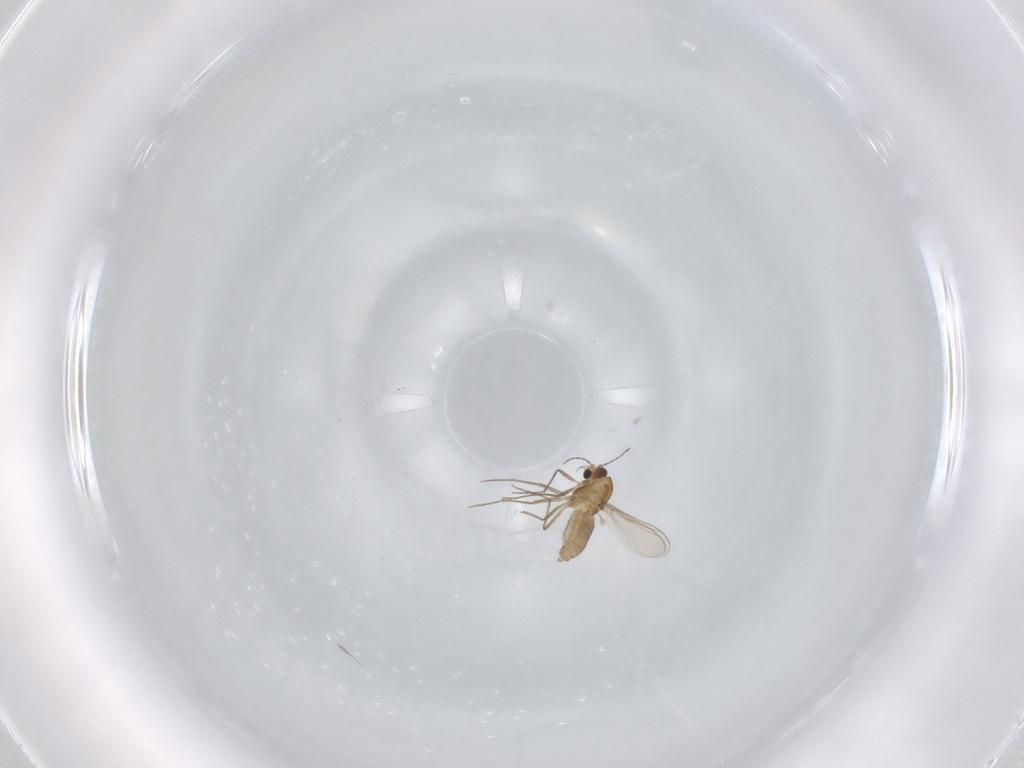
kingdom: Animalia
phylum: Arthropoda
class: Insecta
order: Diptera
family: Chironomidae
